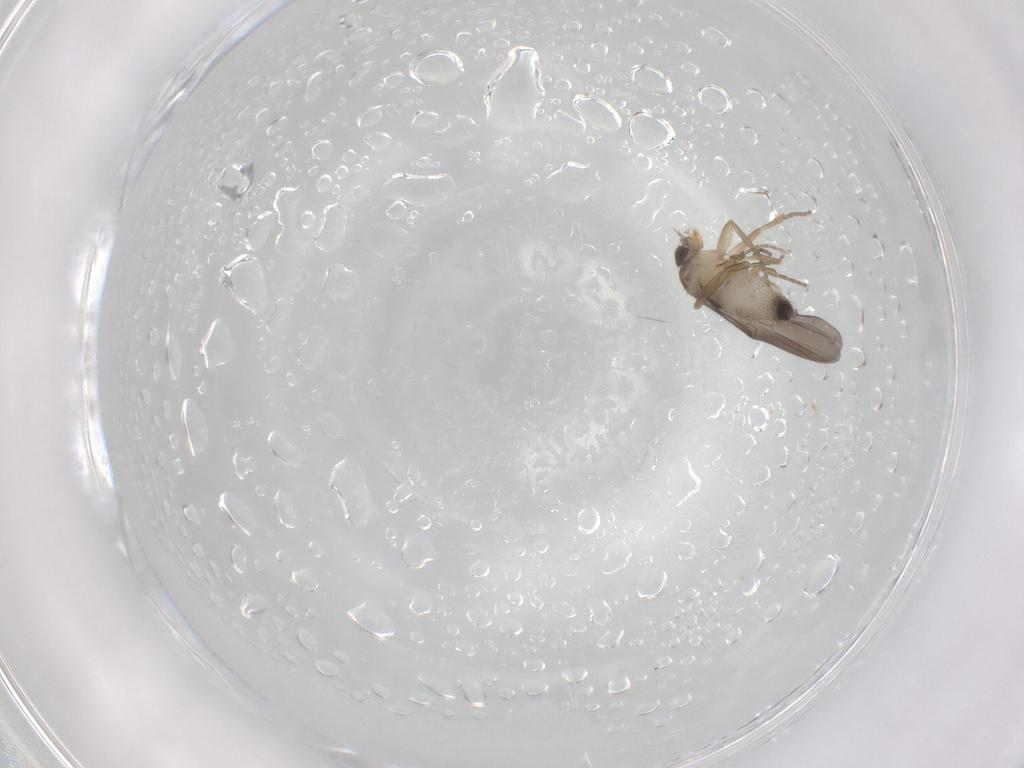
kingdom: Animalia
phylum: Arthropoda
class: Insecta
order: Diptera
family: Phoridae
